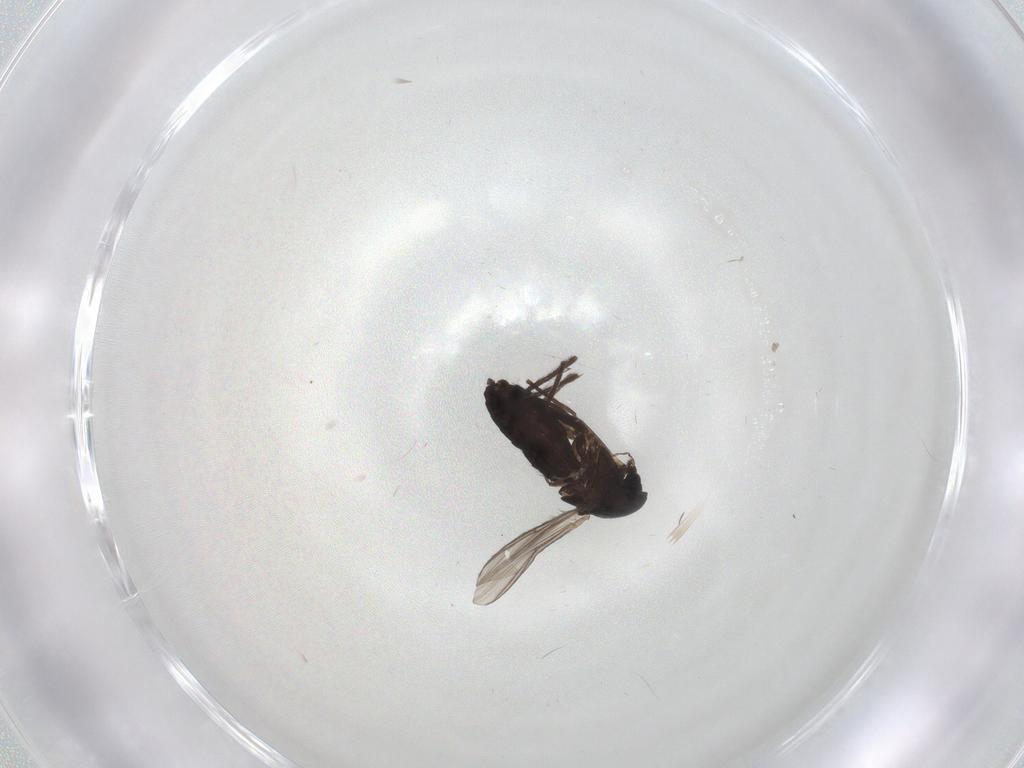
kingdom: Animalia
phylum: Arthropoda
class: Insecta
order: Diptera
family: Chironomidae
